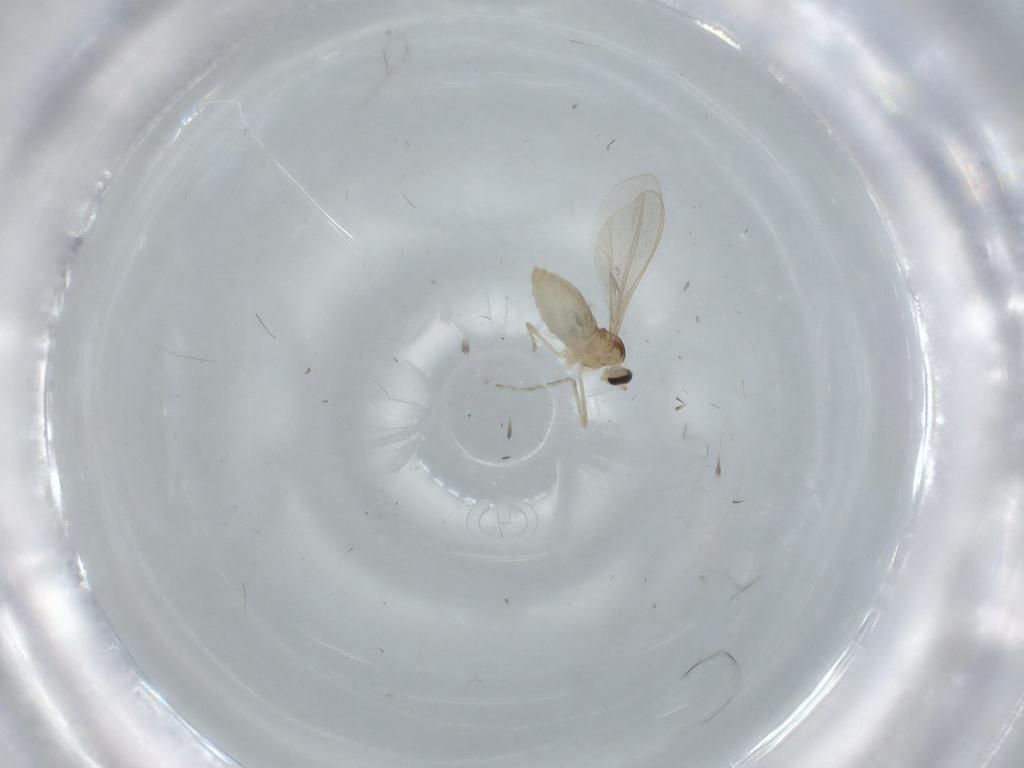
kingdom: Animalia
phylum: Arthropoda
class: Insecta
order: Diptera
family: Cecidomyiidae
